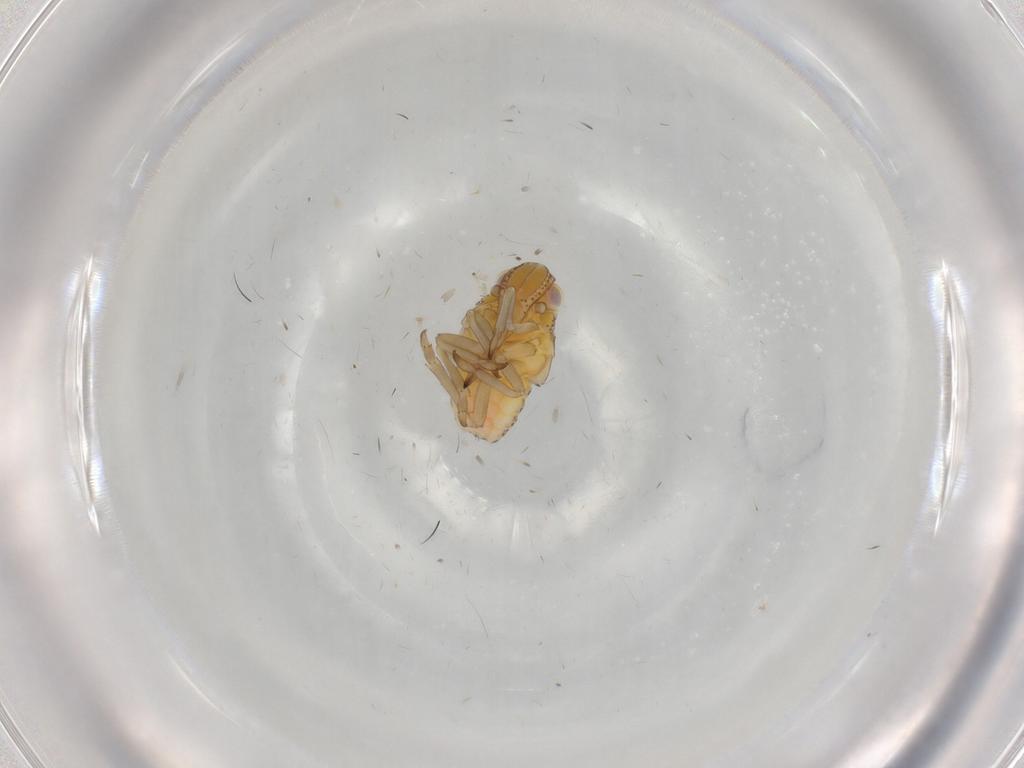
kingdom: Animalia
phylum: Arthropoda
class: Insecta
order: Hemiptera
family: Tropiduchidae
